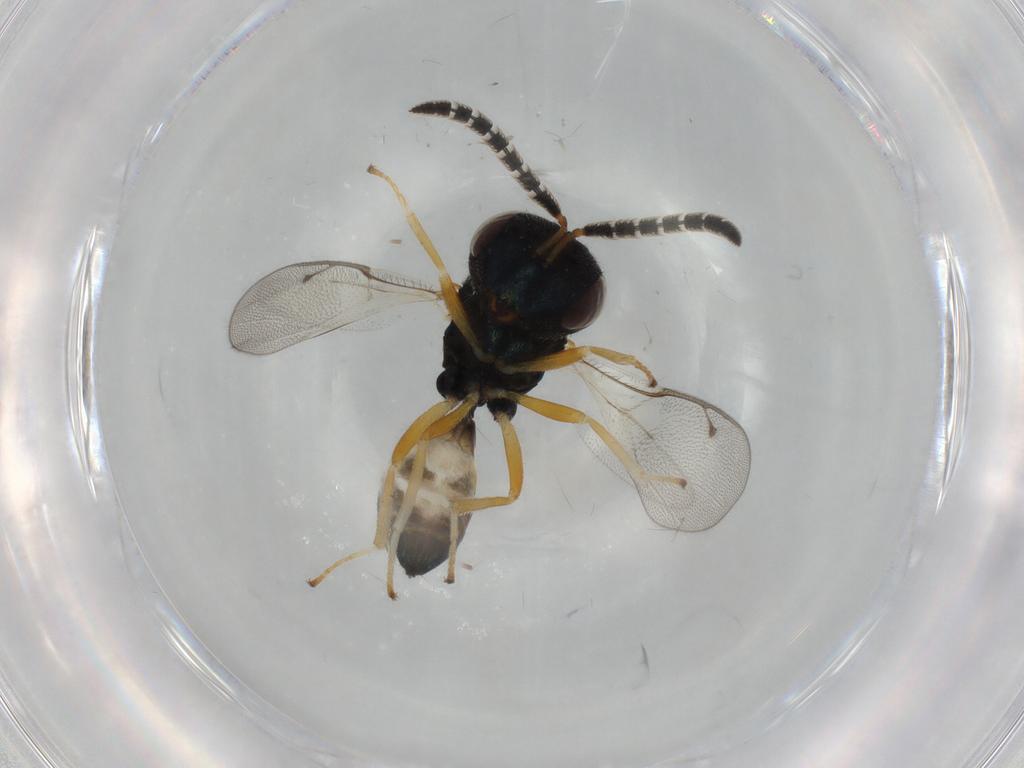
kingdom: Animalia
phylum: Arthropoda
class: Insecta
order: Hymenoptera
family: Agaonidae
